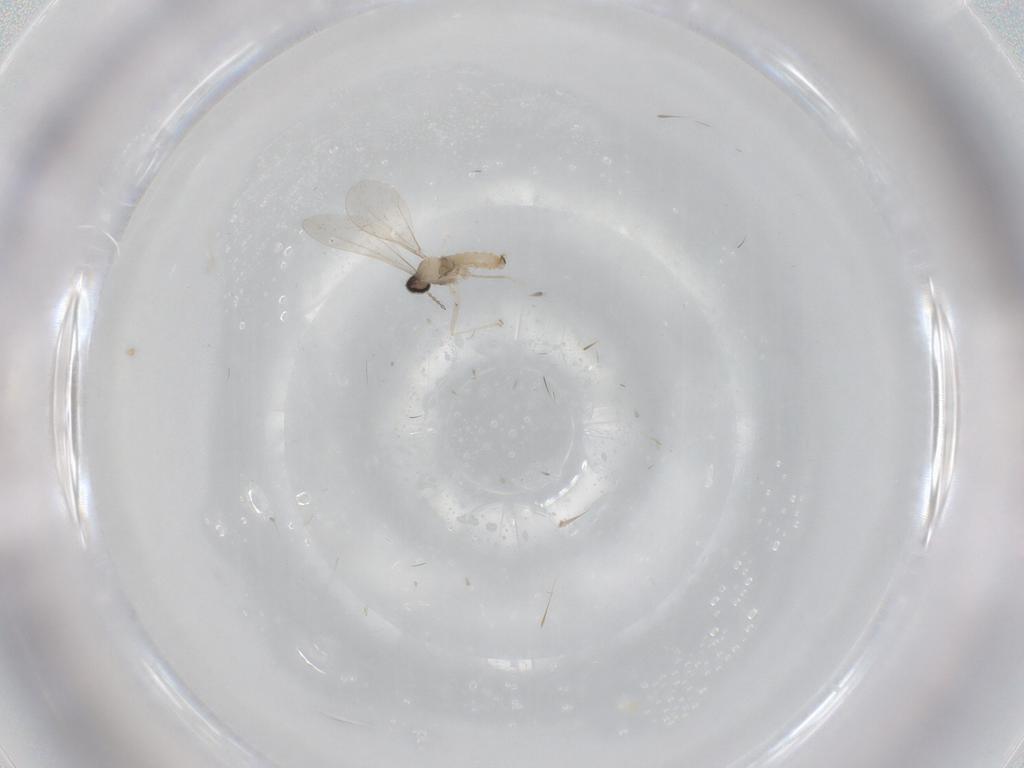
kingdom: Animalia
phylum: Arthropoda
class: Insecta
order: Diptera
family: Cecidomyiidae
